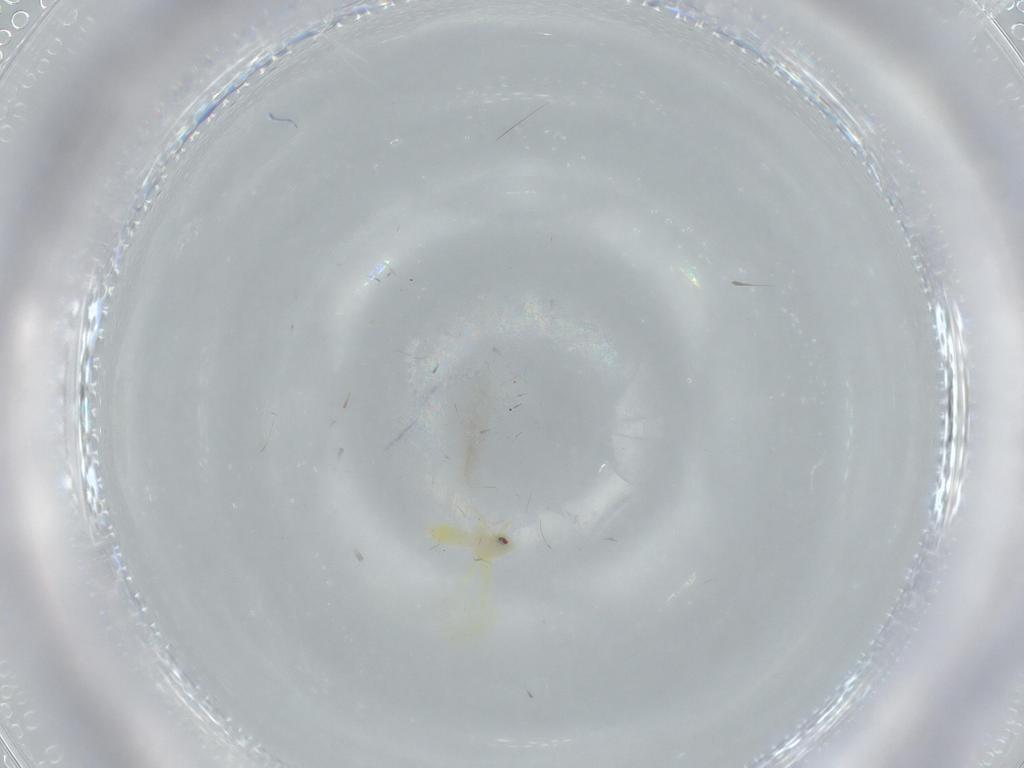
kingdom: Animalia
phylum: Arthropoda
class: Insecta
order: Hemiptera
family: Aleyrodidae
